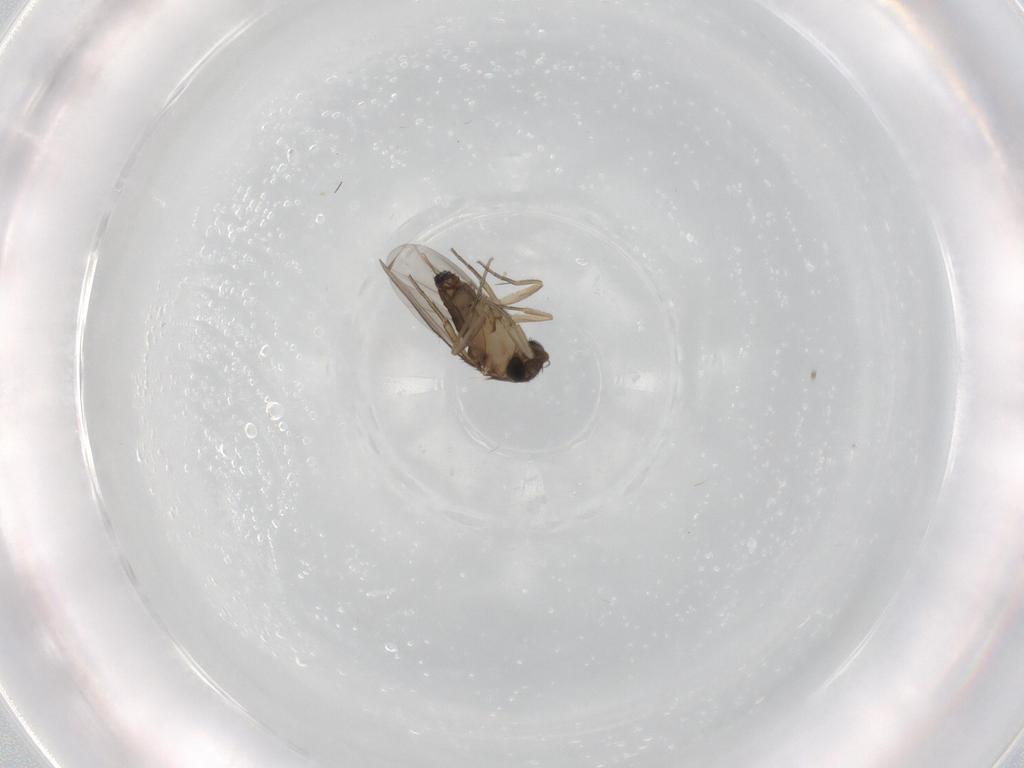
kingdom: Animalia
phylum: Arthropoda
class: Insecta
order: Diptera
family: Phoridae
